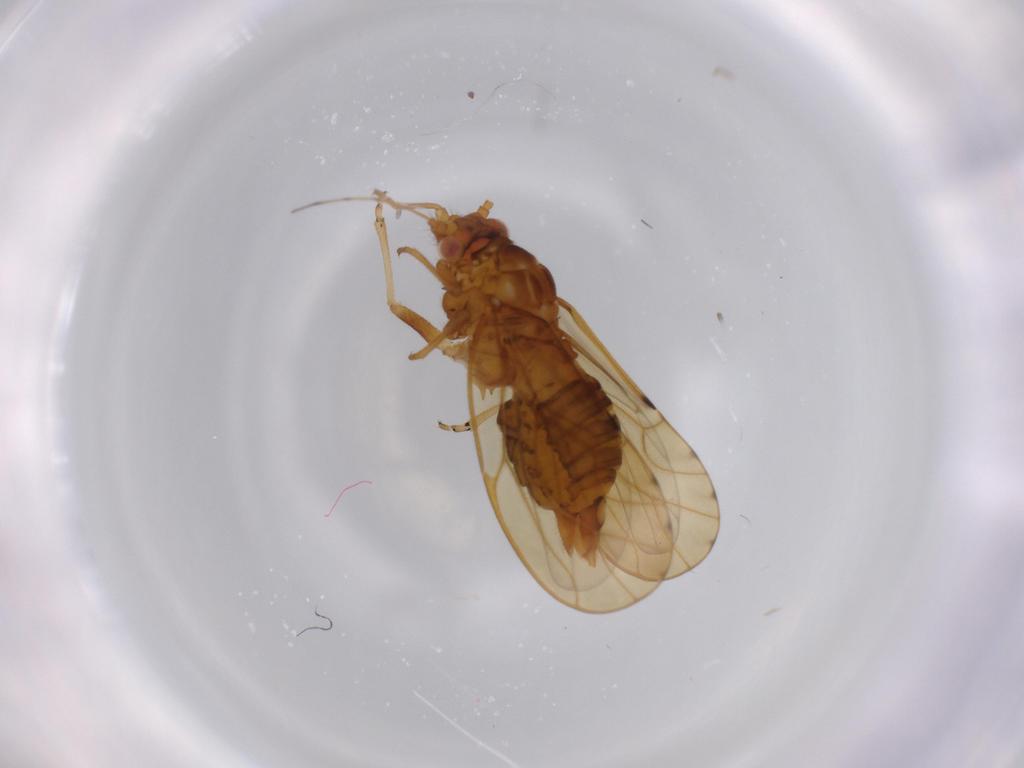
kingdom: Animalia
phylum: Arthropoda
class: Insecta
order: Hemiptera
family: Psylloidea_incertae_sedis
